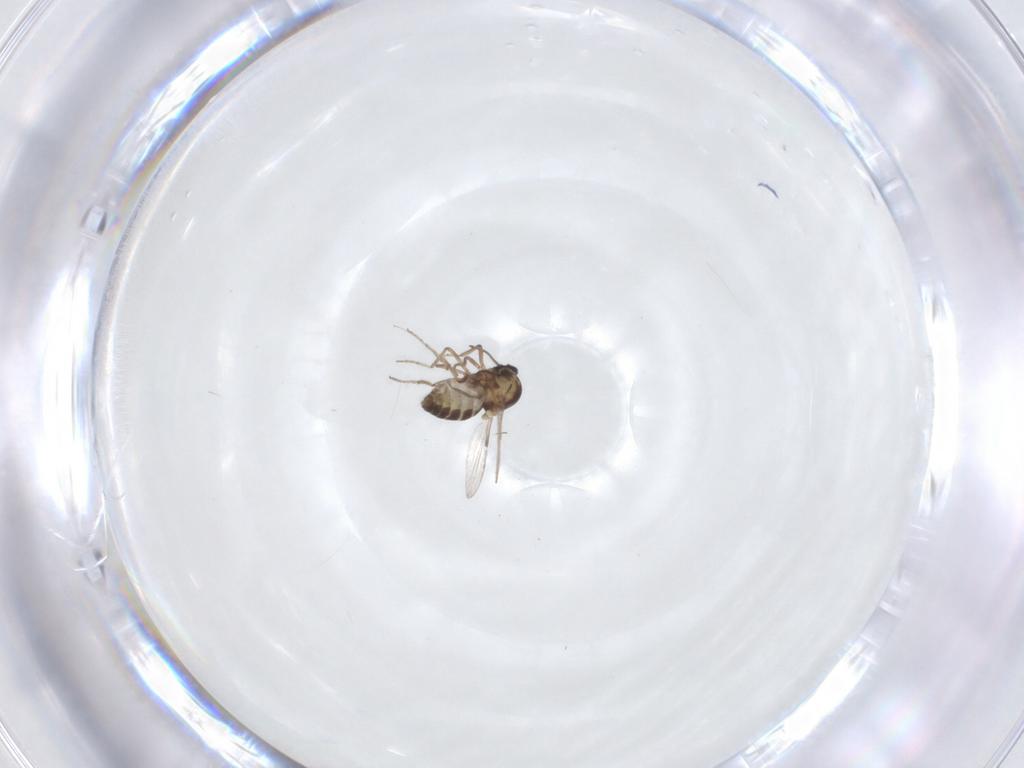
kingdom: Animalia
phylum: Arthropoda
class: Insecta
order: Diptera
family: Ceratopogonidae
